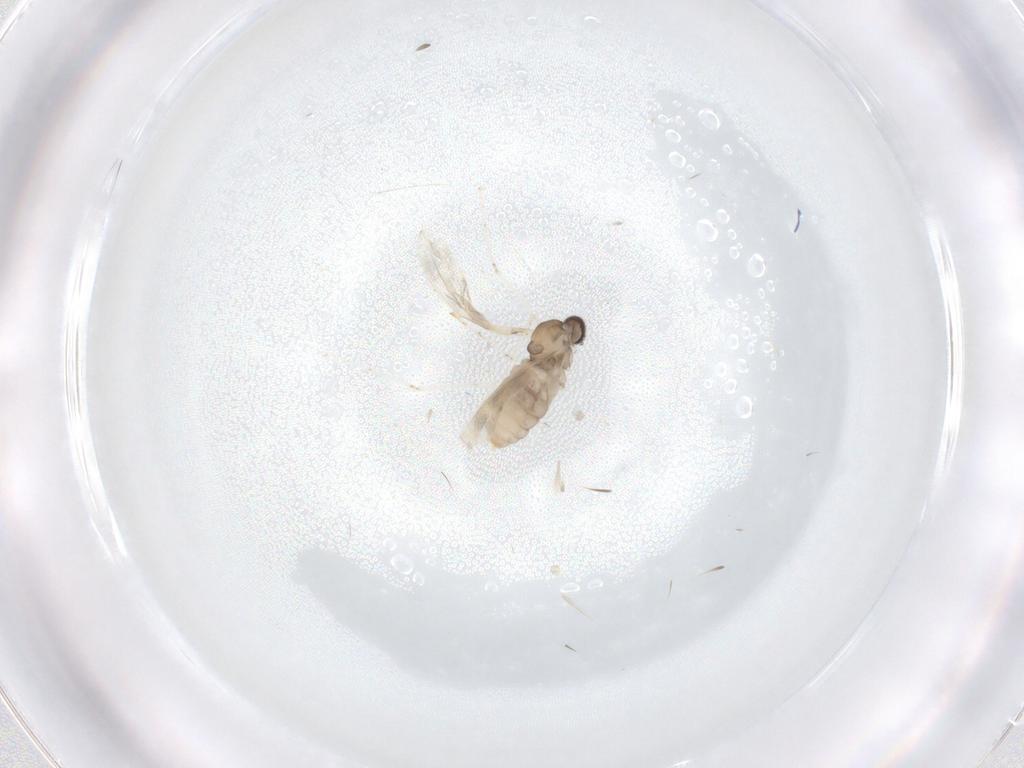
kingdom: Animalia
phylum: Arthropoda
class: Insecta
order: Diptera
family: Cecidomyiidae
